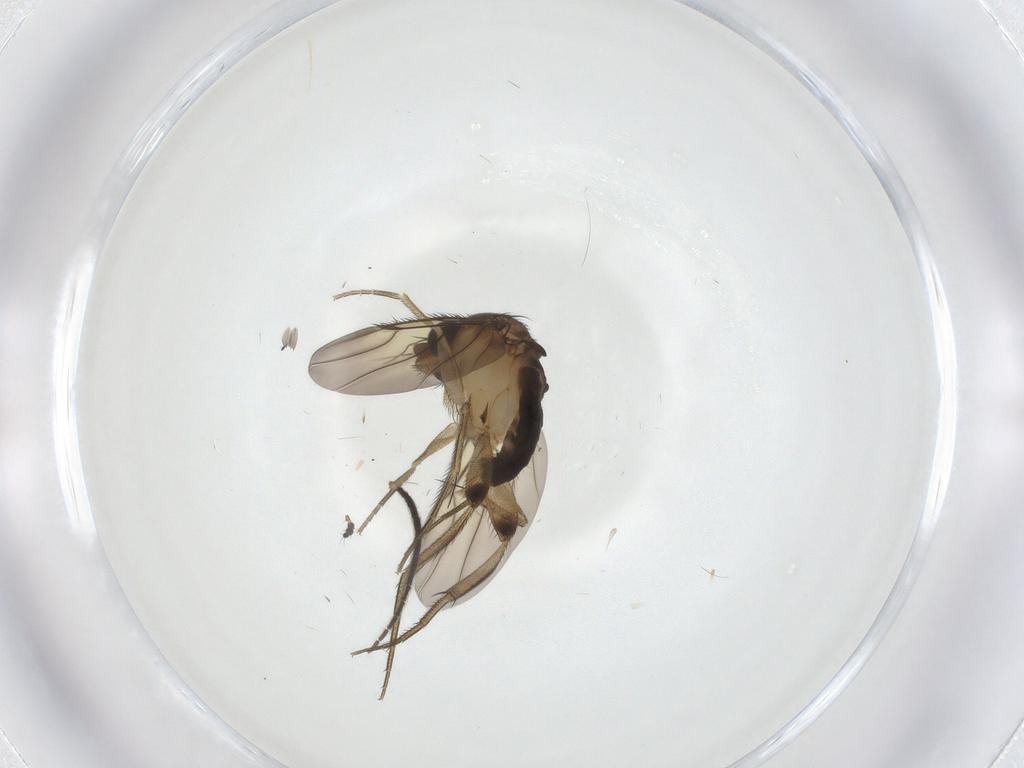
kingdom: Animalia
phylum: Arthropoda
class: Insecta
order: Diptera
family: Sciaridae
